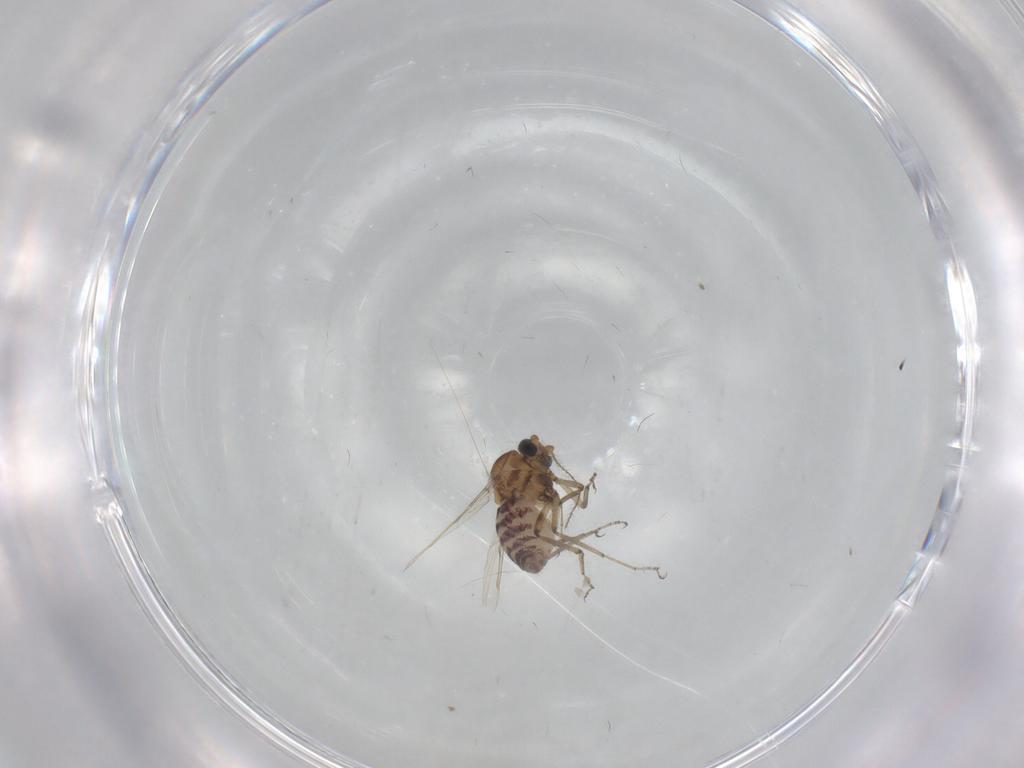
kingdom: Animalia
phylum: Arthropoda
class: Insecta
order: Diptera
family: Ceratopogonidae
